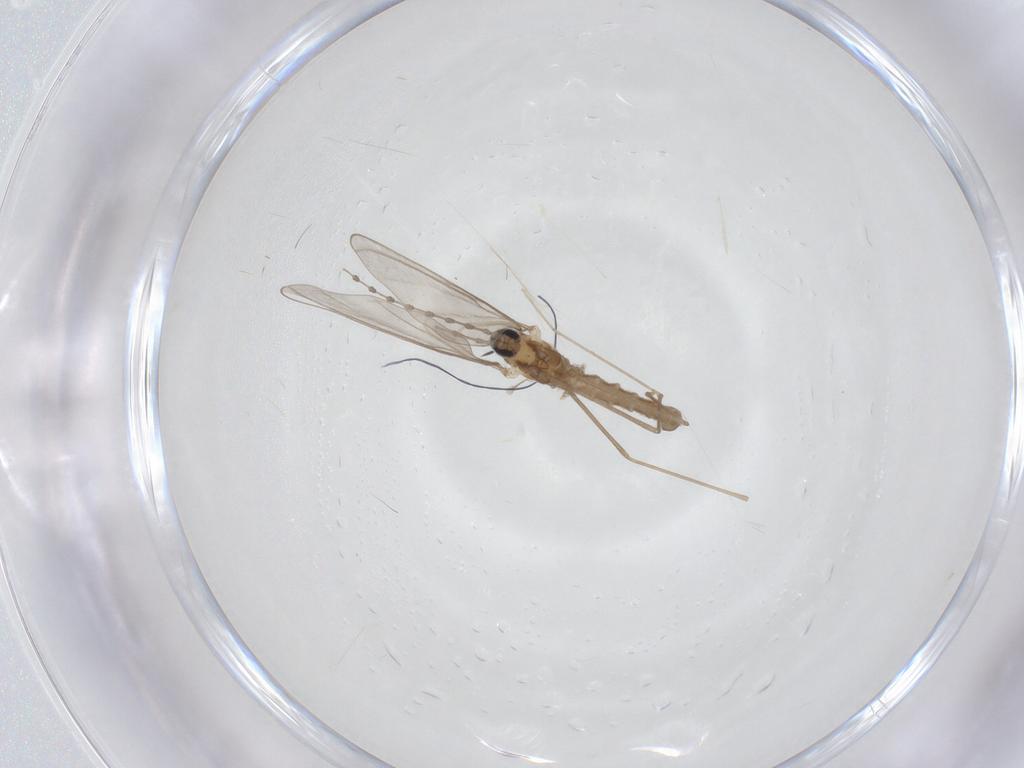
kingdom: Animalia
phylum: Arthropoda
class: Insecta
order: Diptera
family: Cecidomyiidae
